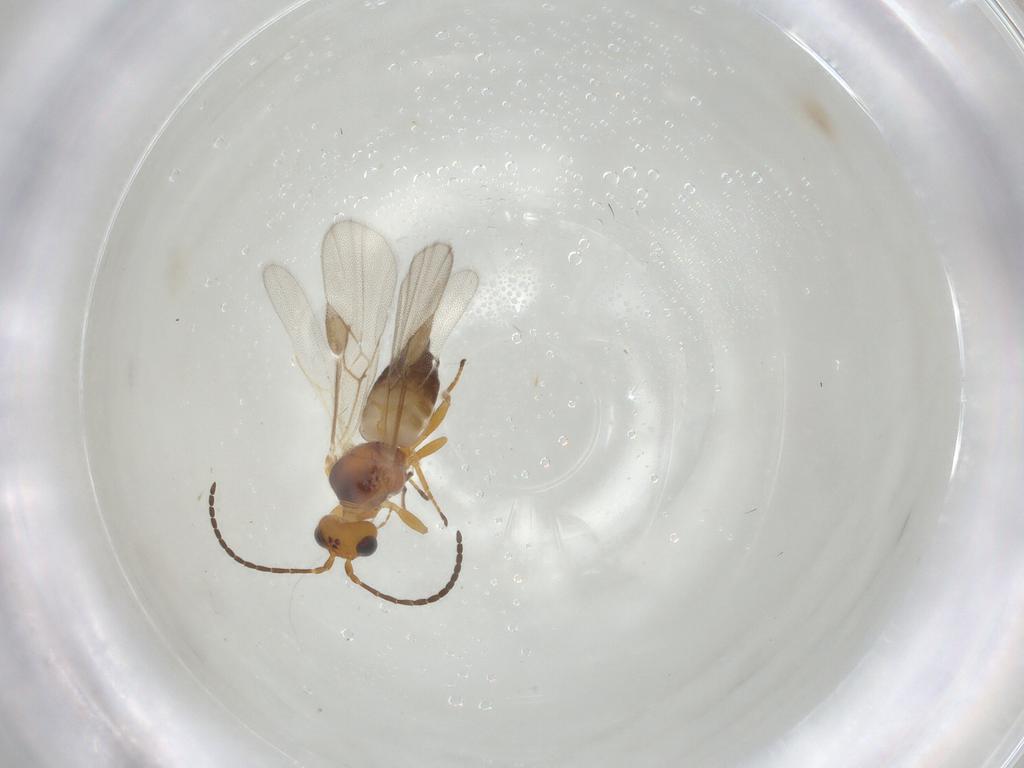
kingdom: Animalia
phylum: Arthropoda
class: Insecta
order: Hymenoptera
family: Braconidae
